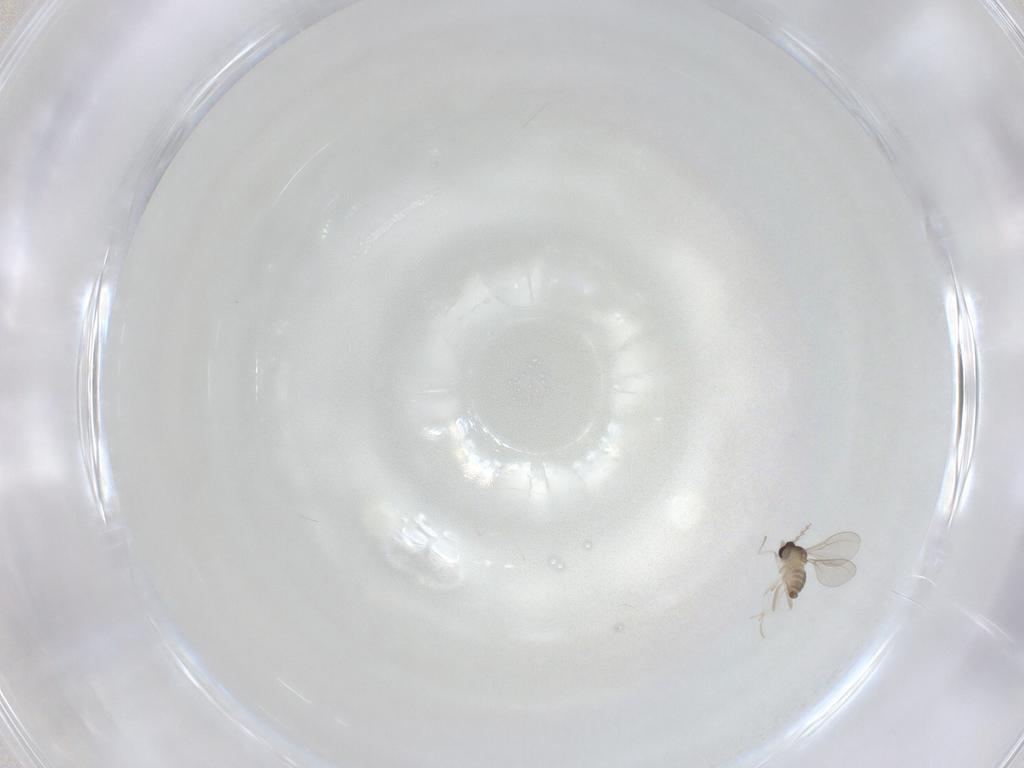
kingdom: Animalia
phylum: Arthropoda
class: Insecta
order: Diptera
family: Cecidomyiidae
